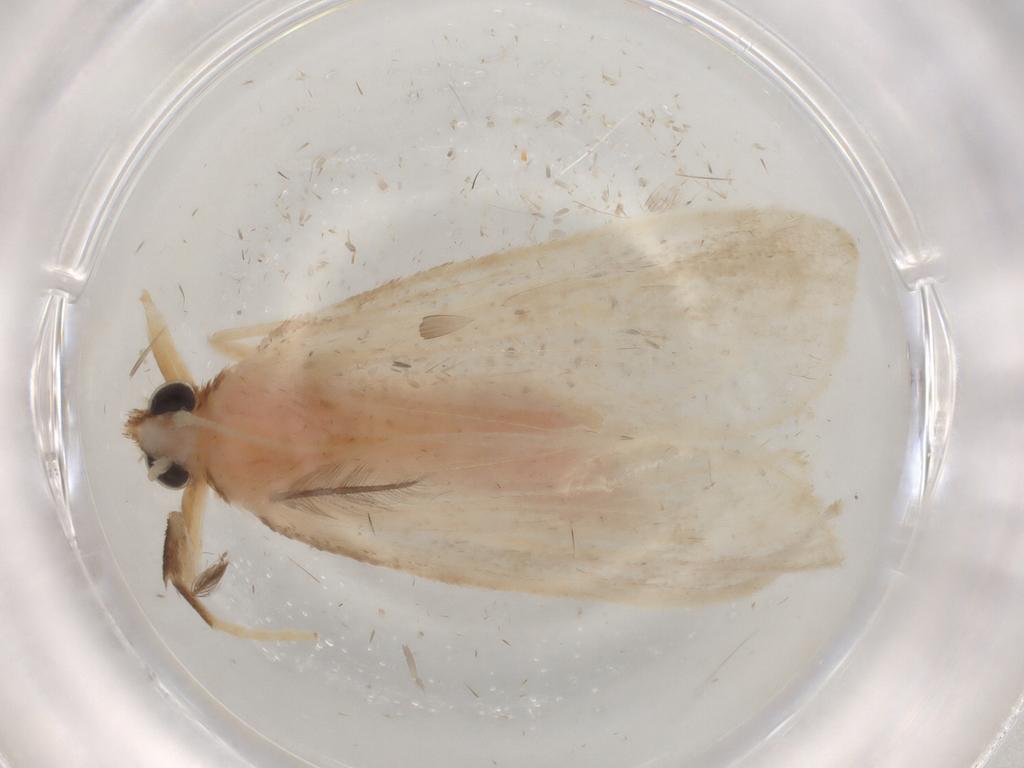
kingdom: Animalia
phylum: Arthropoda
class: Insecta
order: Lepidoptera
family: Crambidae
